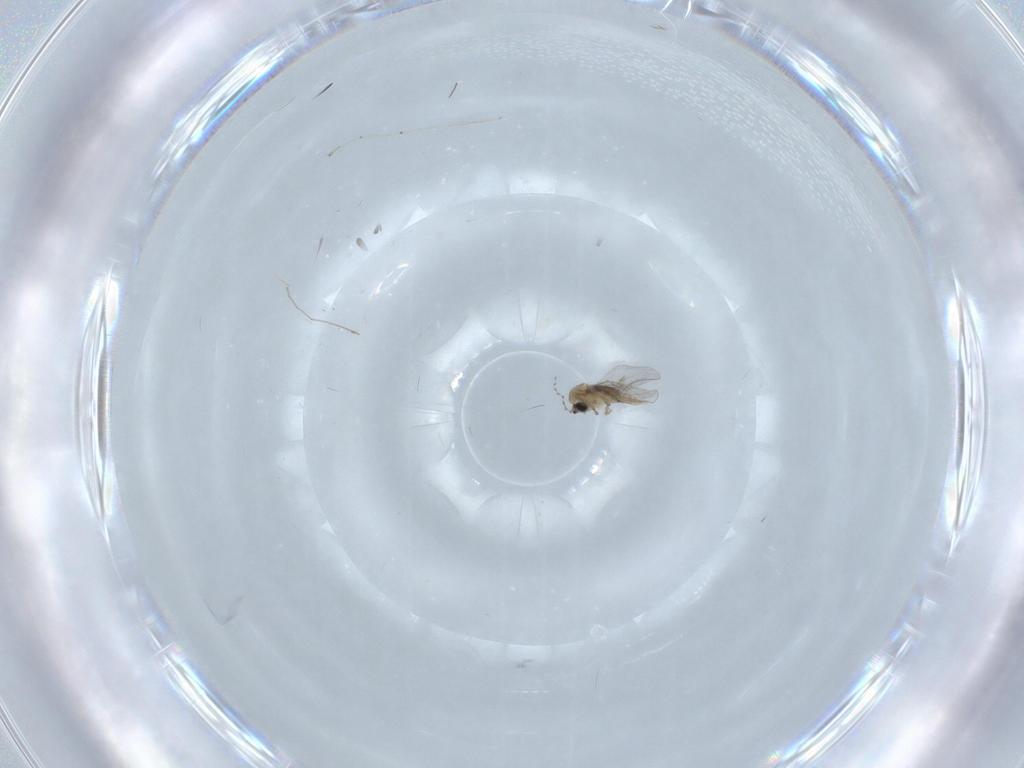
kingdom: Animalia
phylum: Arthropoda
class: Insecta
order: Diptera
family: Cecidomyiidae
